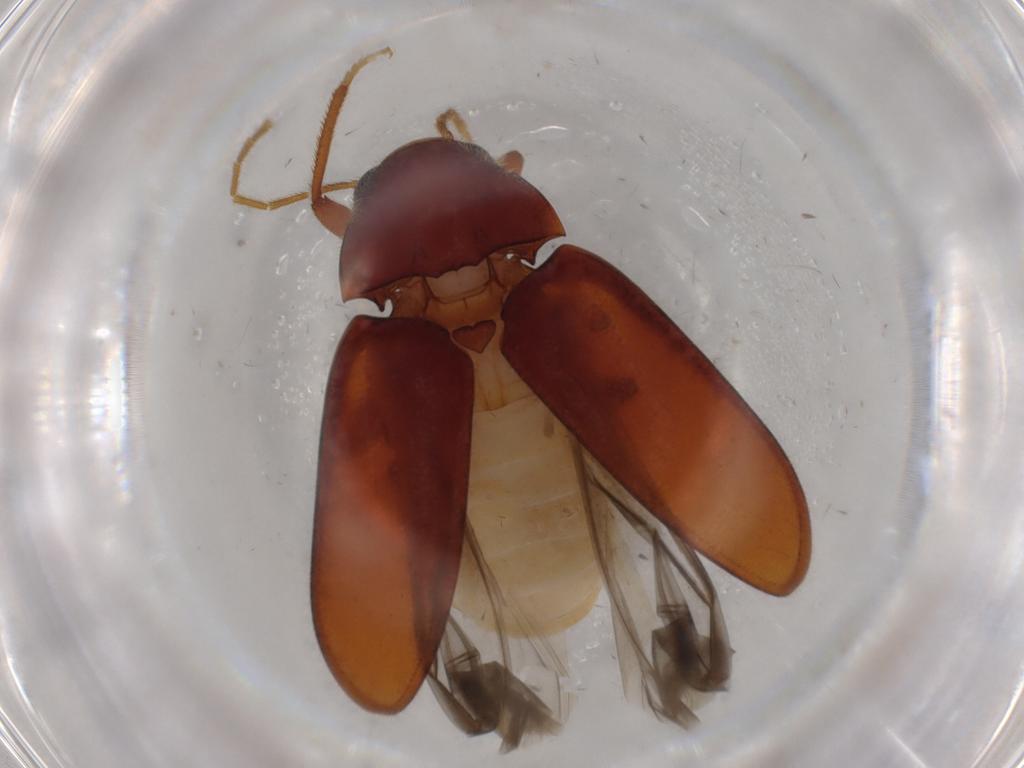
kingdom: Animalia
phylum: Arthropoda
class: Insecta
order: Coleoptera
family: Ptilodactylidae
